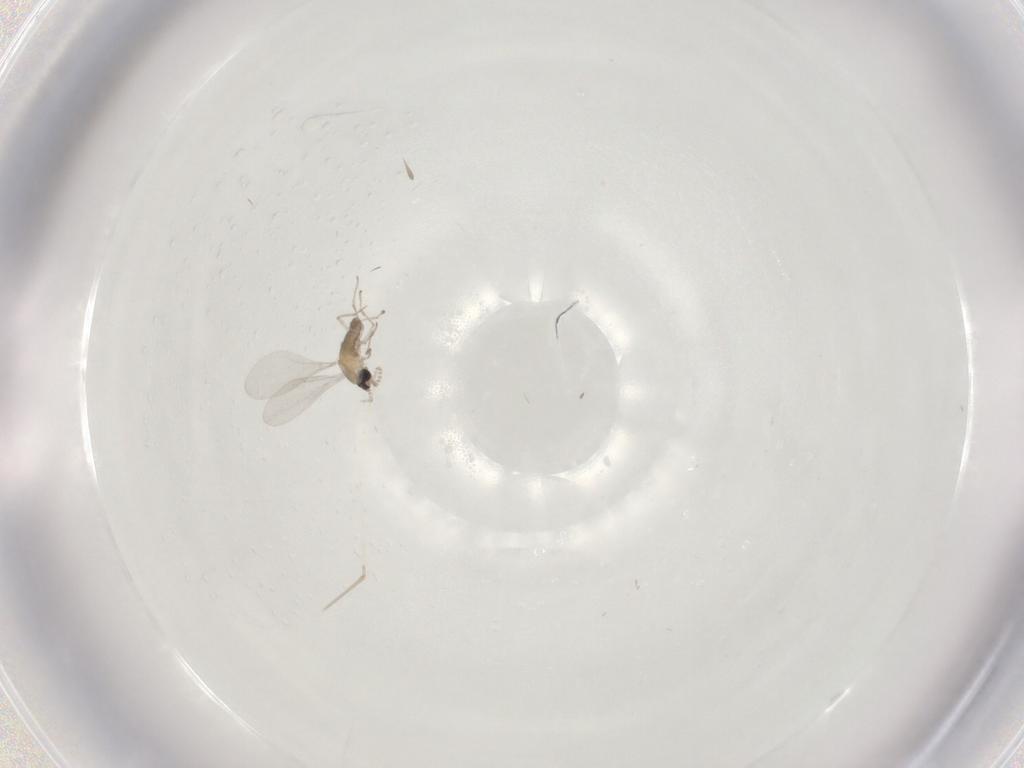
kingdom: Animalia
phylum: Arthropoda
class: Insecta
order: Diptera
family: Cecidomyiidae
